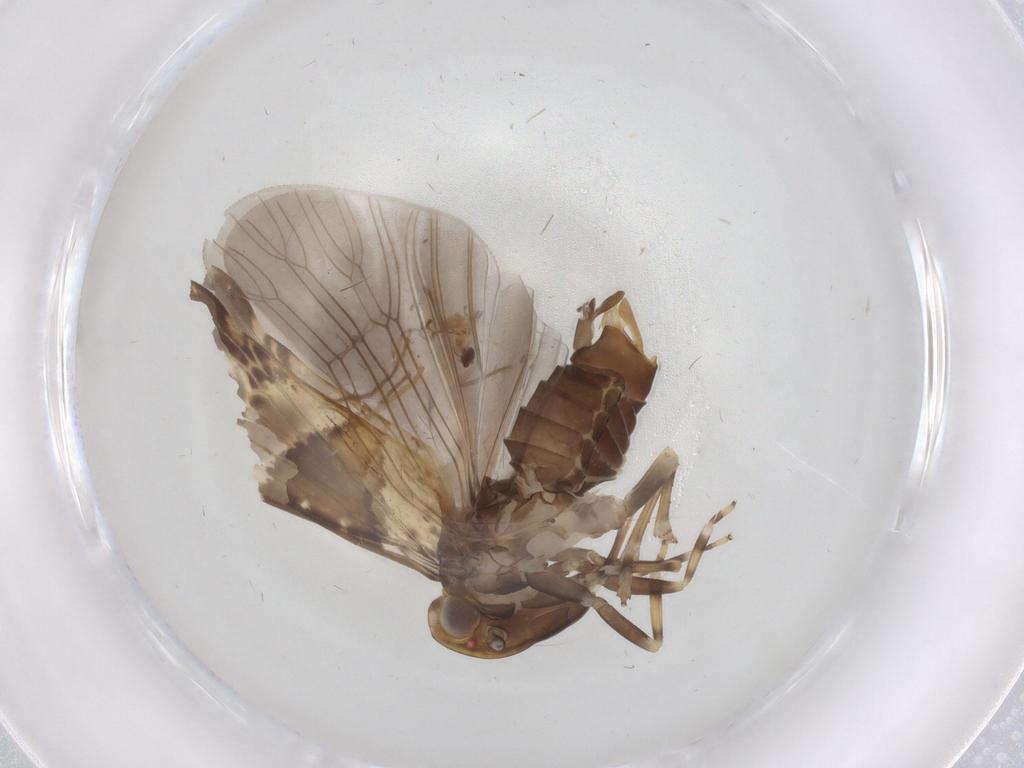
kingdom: Animalia
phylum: Arthropoda
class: Insecta
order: Hemiptera
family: Cixiidae
